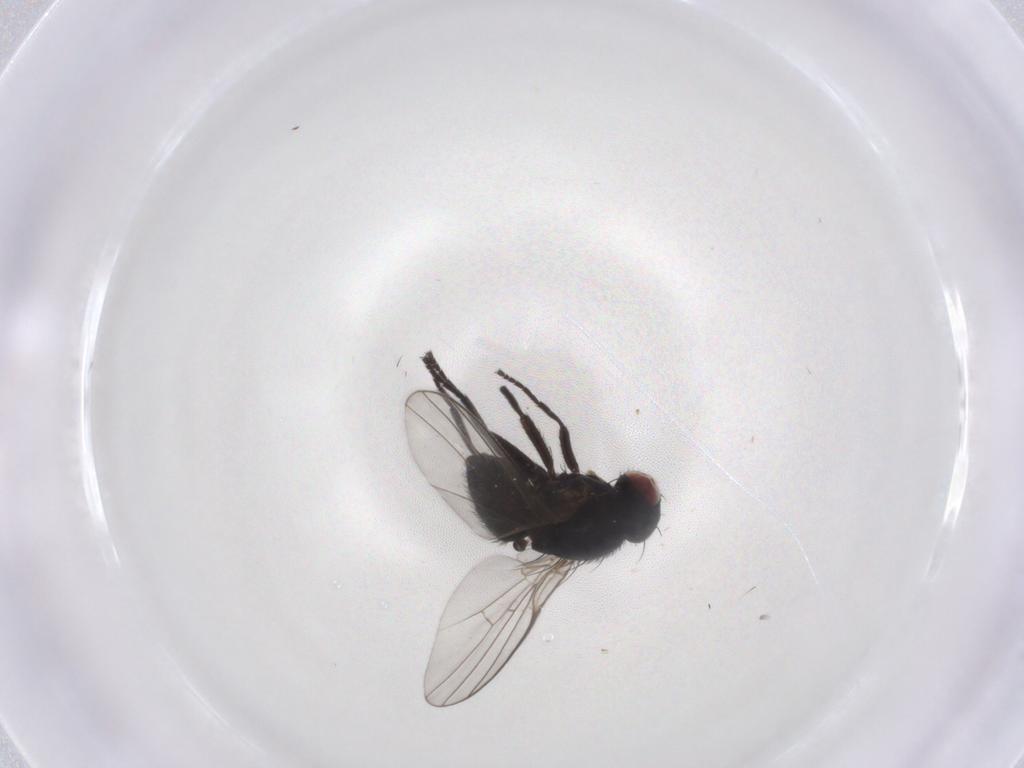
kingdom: Animalia
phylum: Arthropoda
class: Insecta
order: Diptera
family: Agromyzidae
